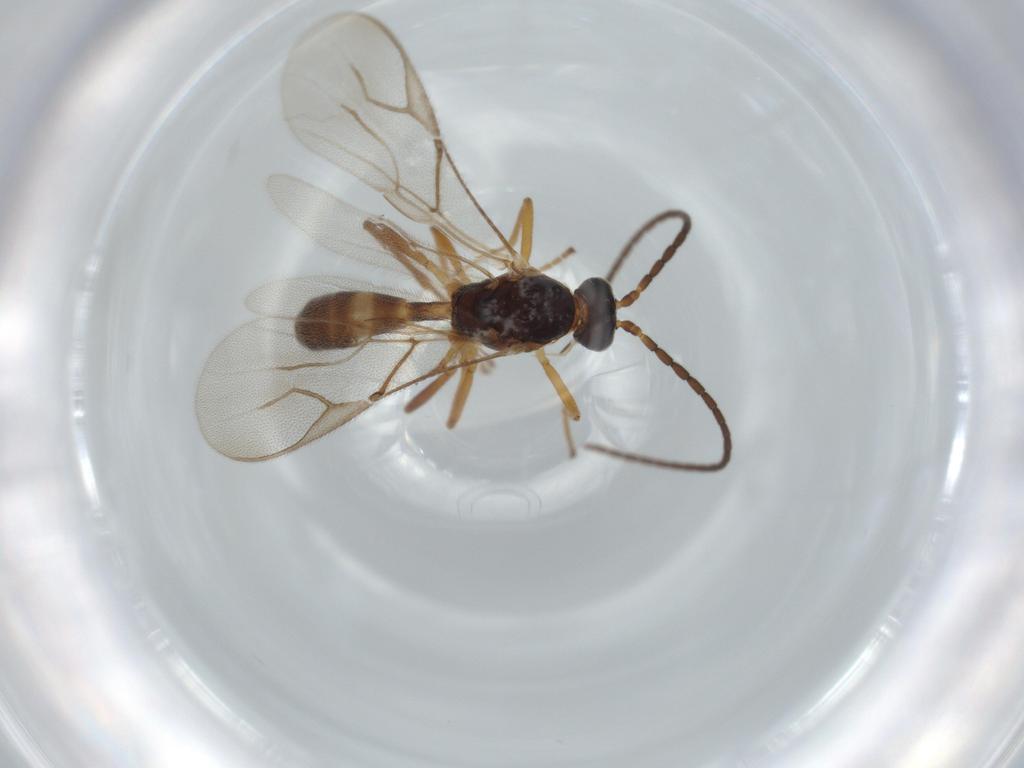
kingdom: Animalia
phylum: Arthropoda
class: Insecta
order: Hymenoptera
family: Braconidae
